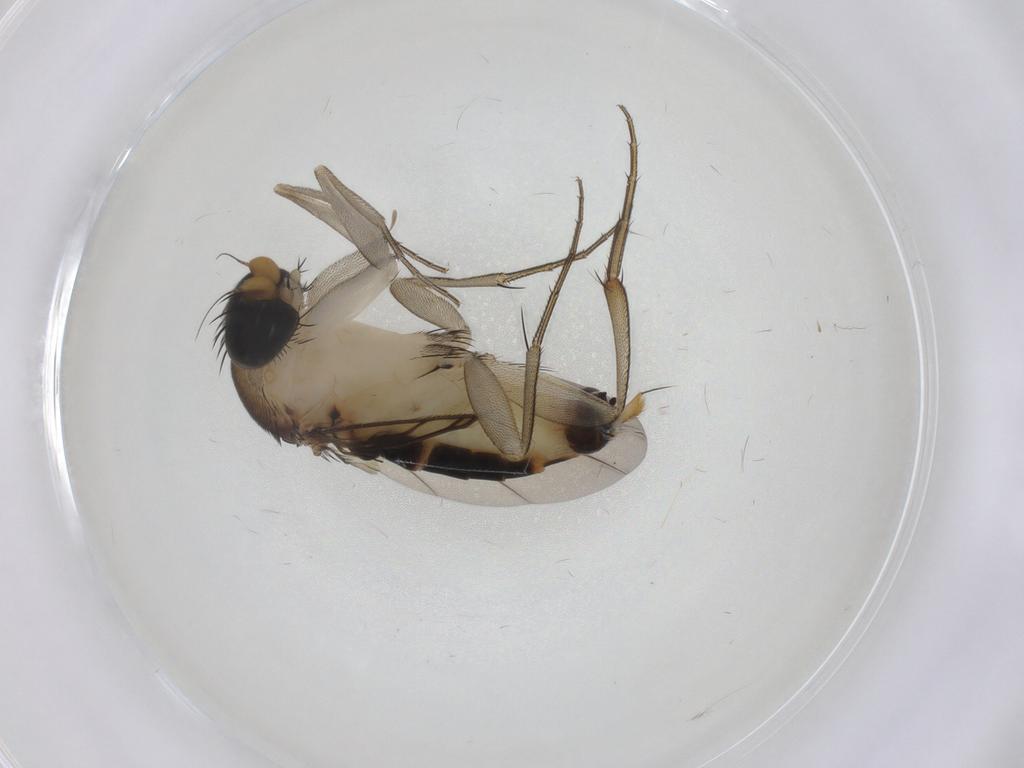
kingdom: Animalia
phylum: Arthropoda
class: Insecta
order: Diptera
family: Phoridae
